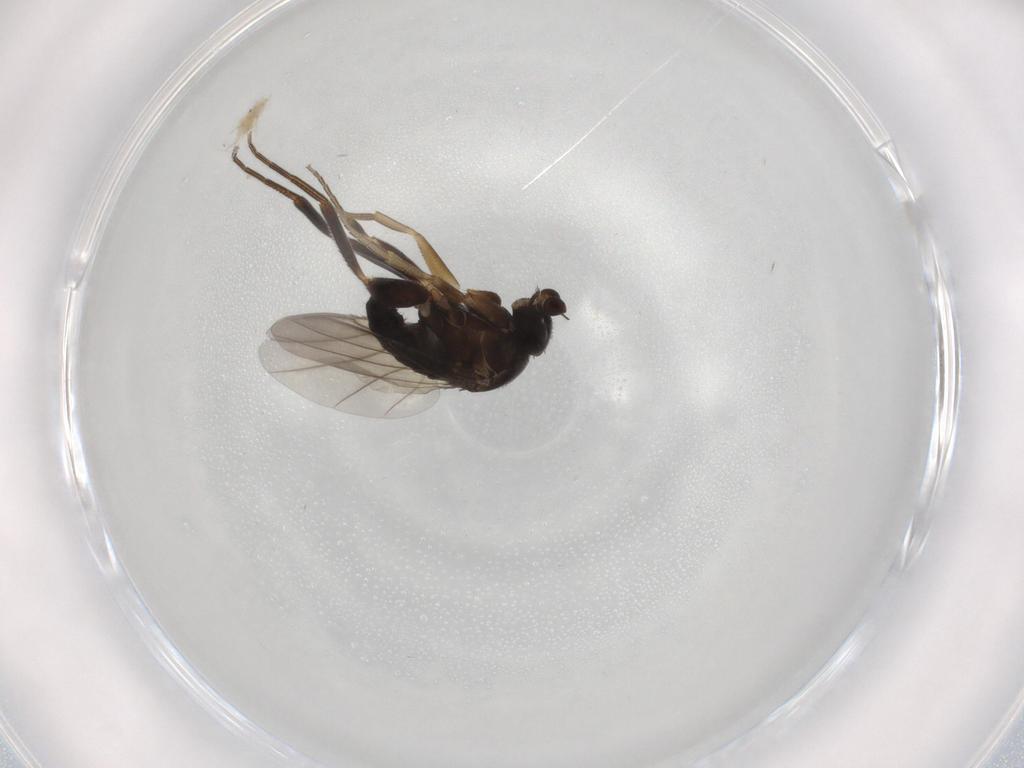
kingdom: Animalia
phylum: Arthropoda
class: Insecta
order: Diptera
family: Phoridae
